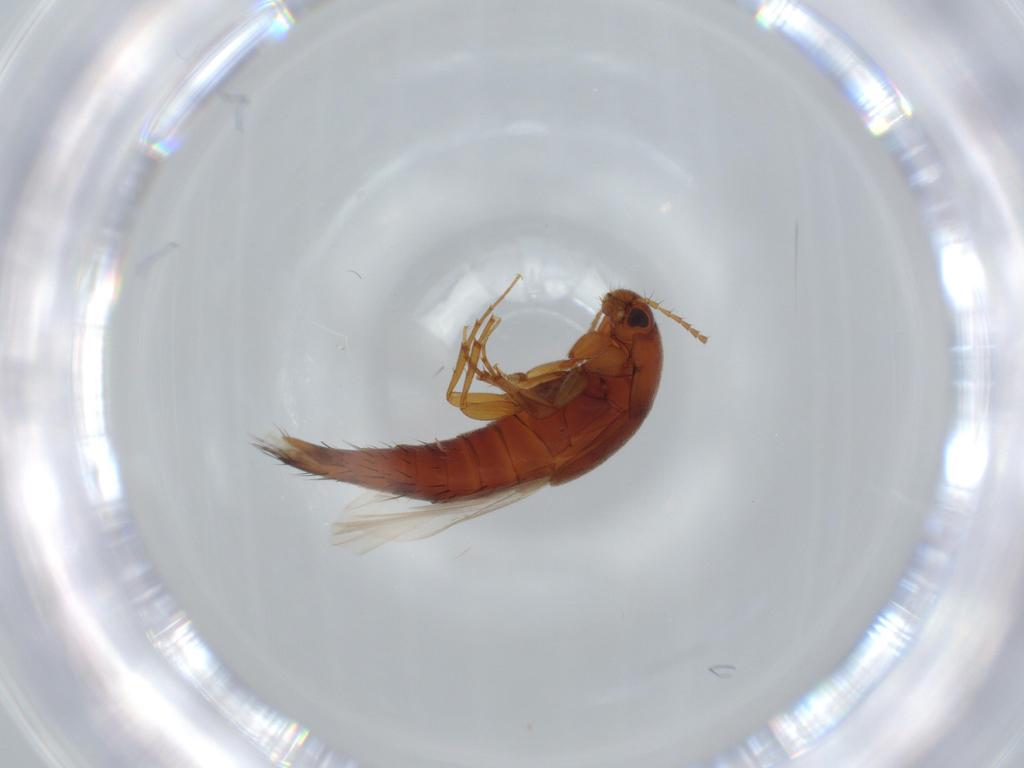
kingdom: Animalia
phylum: Arthropoda
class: Insecta
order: Coleoptera
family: Staphylinidae
